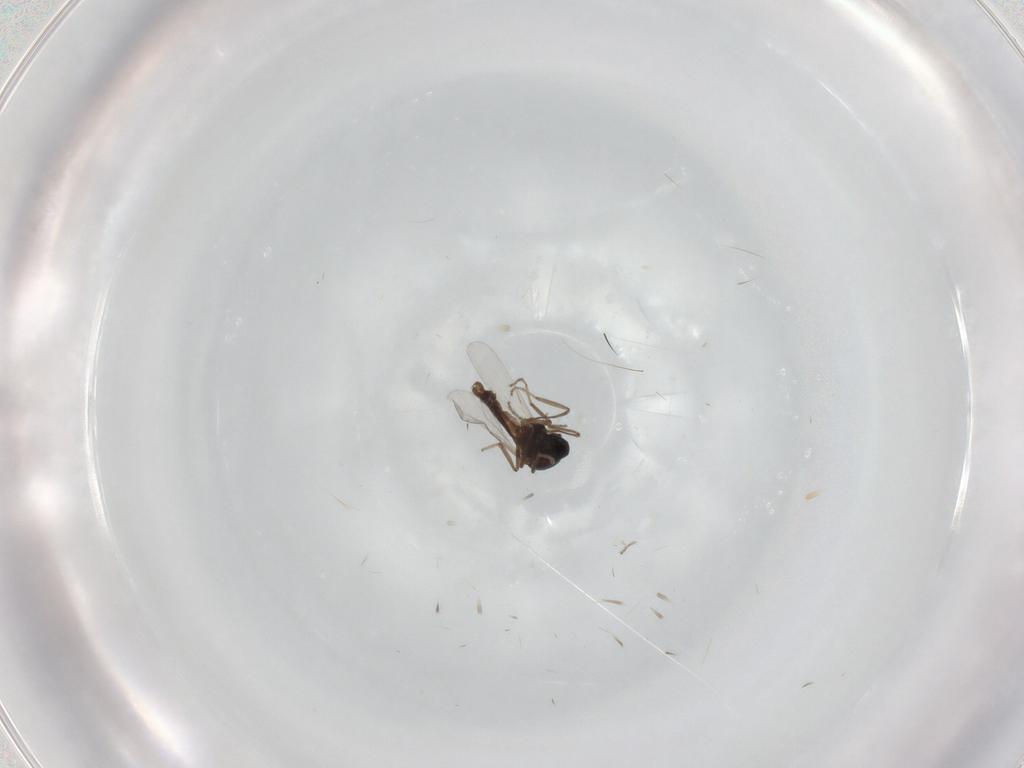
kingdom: Animalia
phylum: Arthropoda
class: Insecta
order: Diptera
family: Ceratopogonidae
